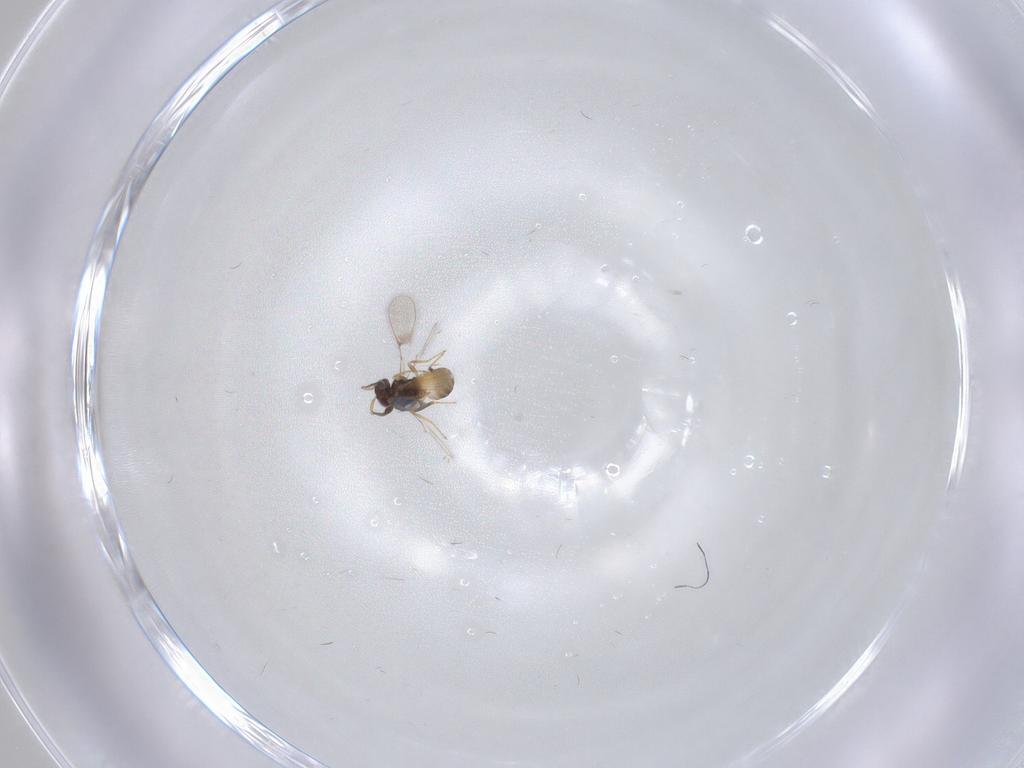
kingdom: Animalia
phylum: Arthropoda
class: Insecta
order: Hymenoptera
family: Mymaridae
